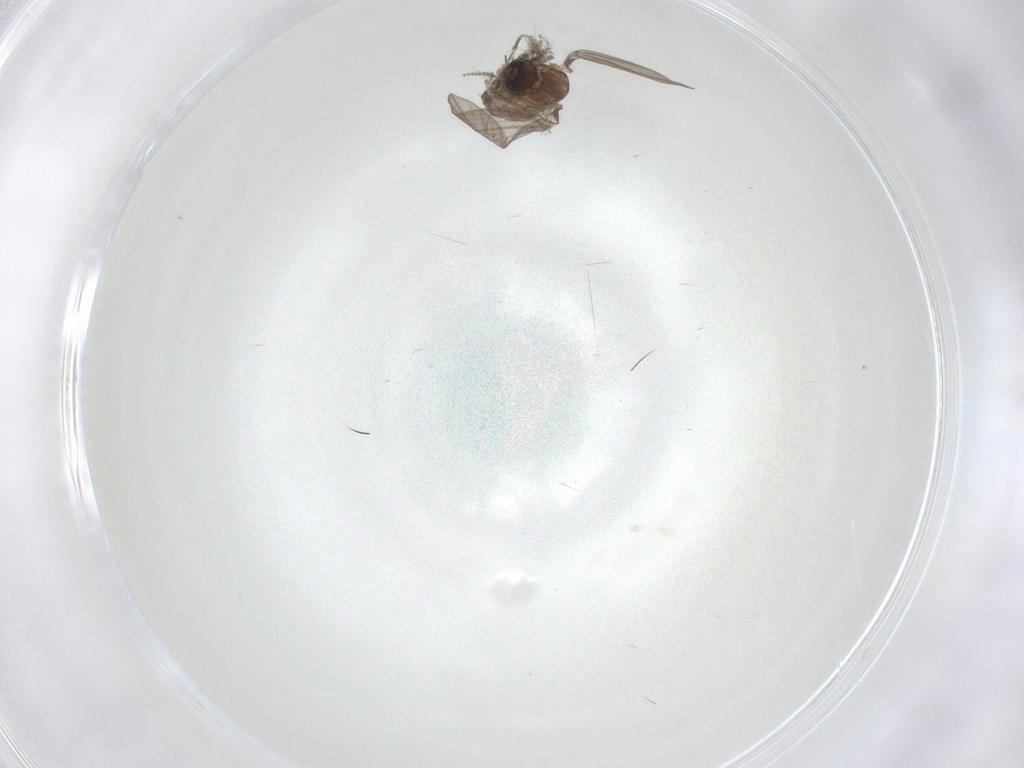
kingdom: Animalia
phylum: Arthropoda
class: Insecta
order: Diptera
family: Psychodidae
